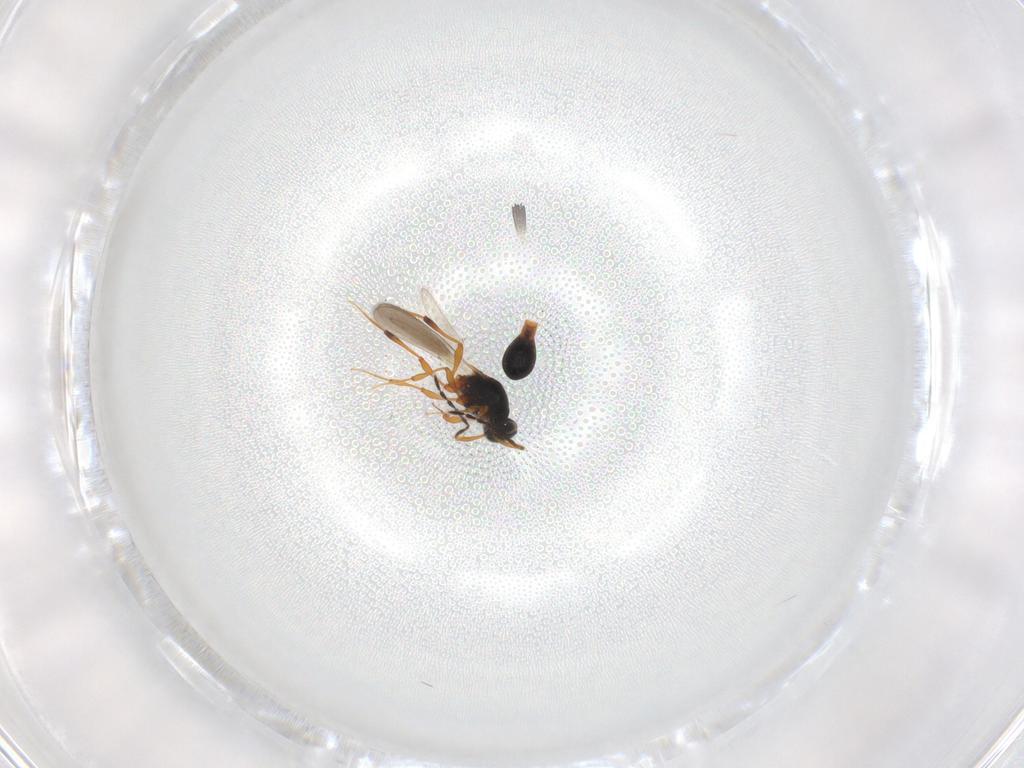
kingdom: Animalia
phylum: Arthropoda
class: Insecta
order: Hymenoptera
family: Platygastridae
